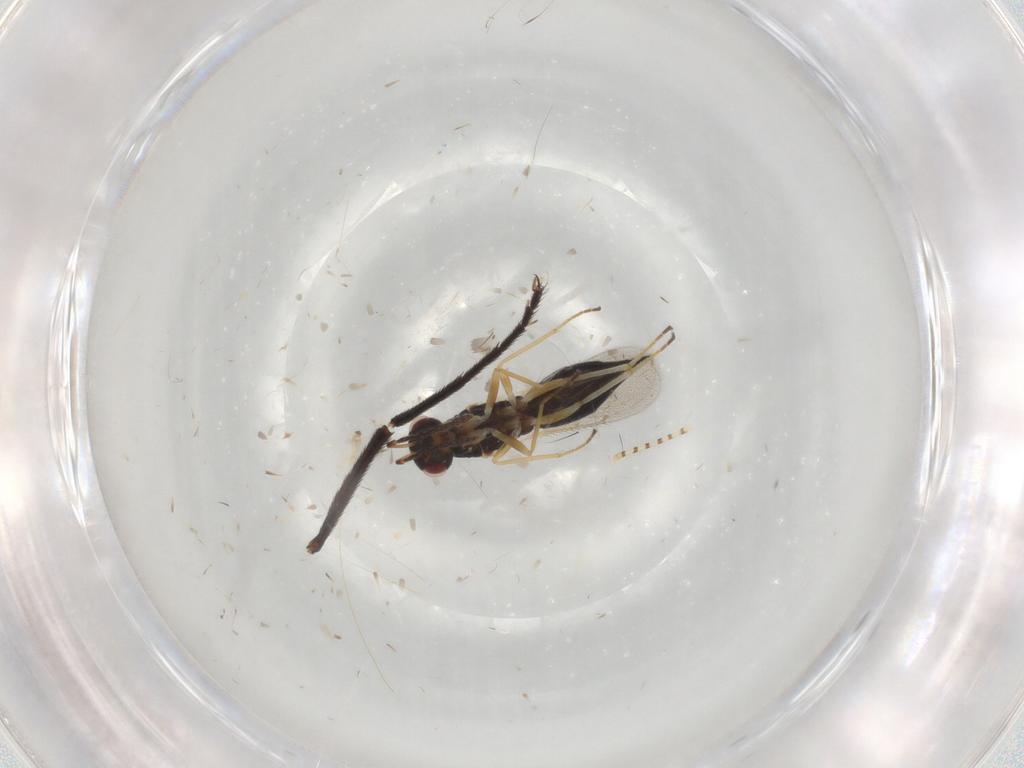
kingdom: Animalia
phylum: Arthropoda
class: Insecta
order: Hymenoptera
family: Eulophidae
